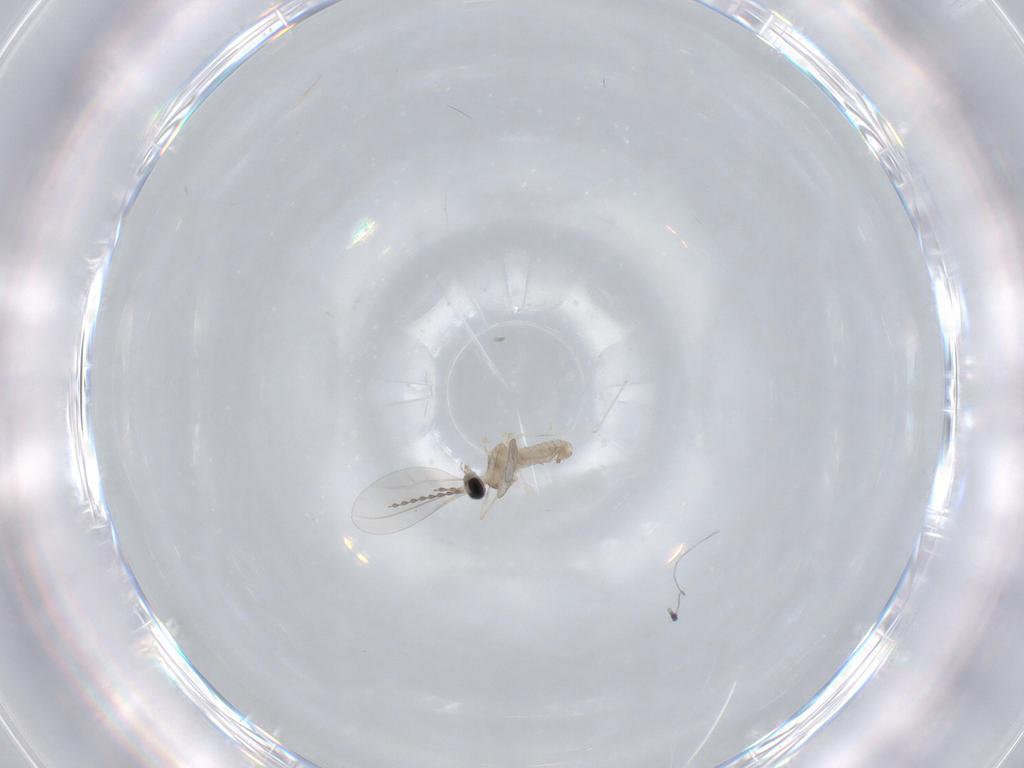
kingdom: Animalia
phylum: Arthropoda
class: Insecta
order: Diptera
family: Cecidomyiidae
